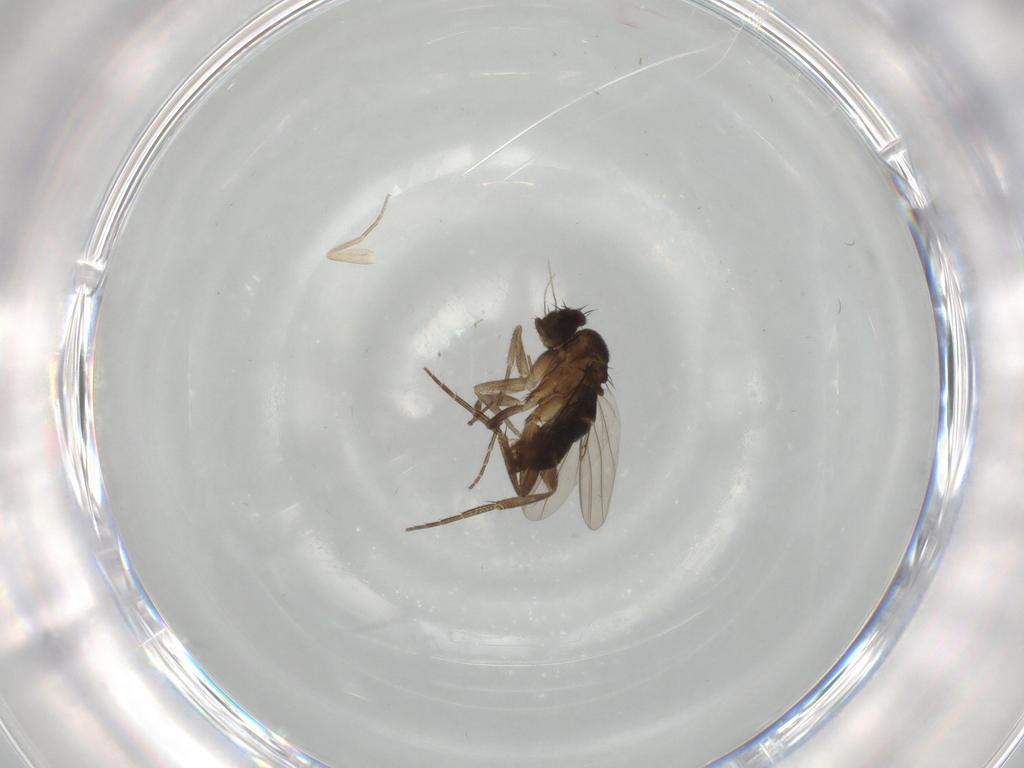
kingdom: Animalia
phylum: Arthropoda
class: Insecta
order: Diptera
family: Phoridae
